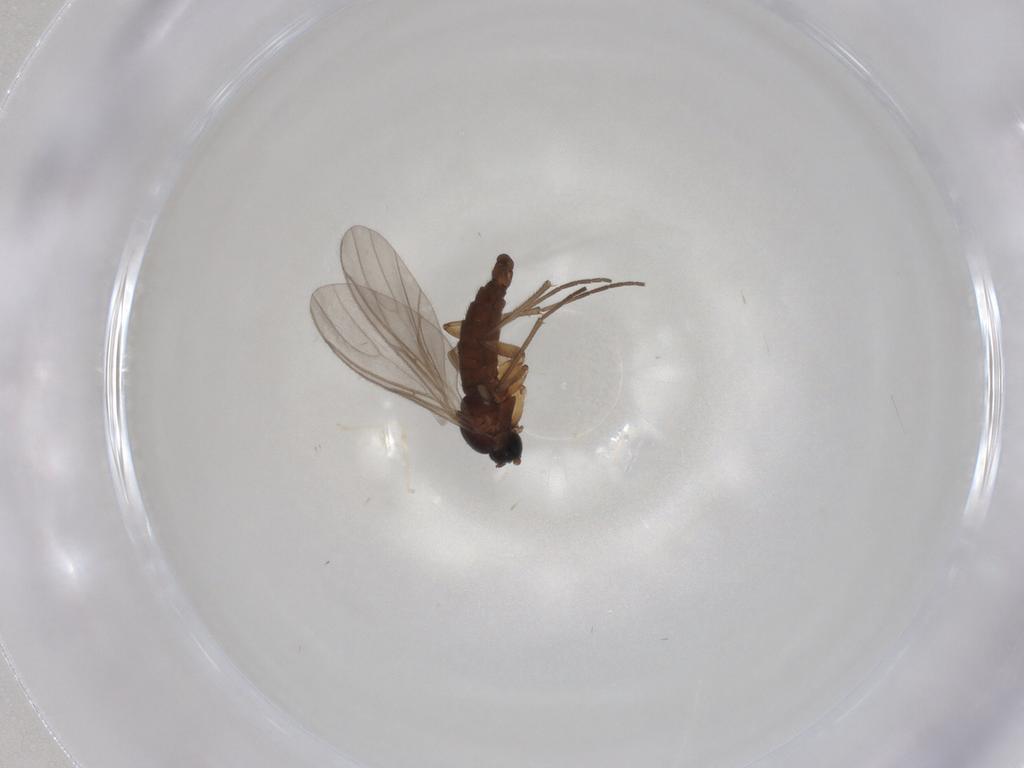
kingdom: Animalia
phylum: Arthropoda
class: Insecta
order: Diptera
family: Sciaridae
